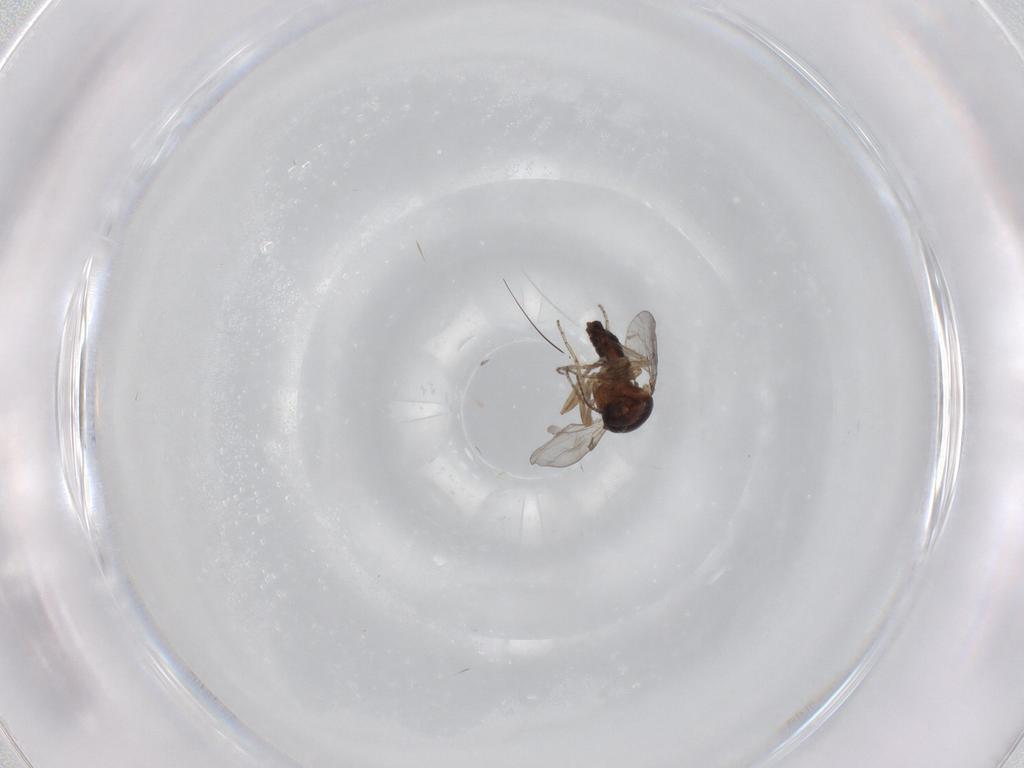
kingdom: Animalia
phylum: Arthropoda
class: Insecta
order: Diptera
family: Ceratopogonidae
